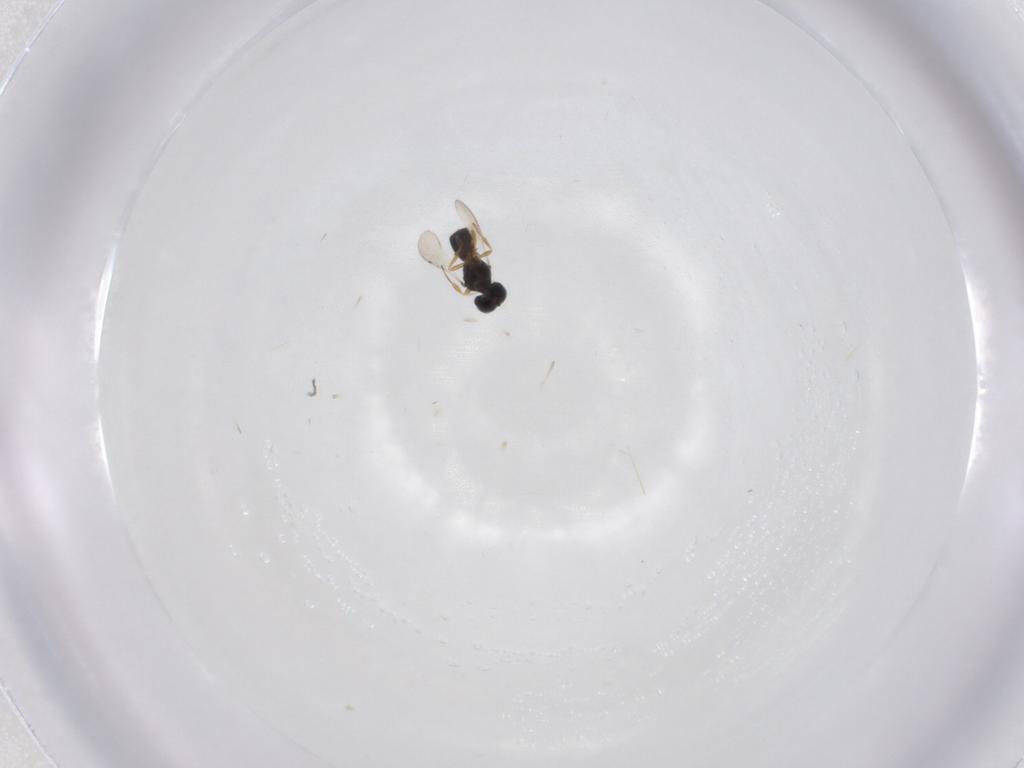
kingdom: Animalia
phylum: Arthropoda
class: Insecta
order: Hymenoptera
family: Scelionidae
